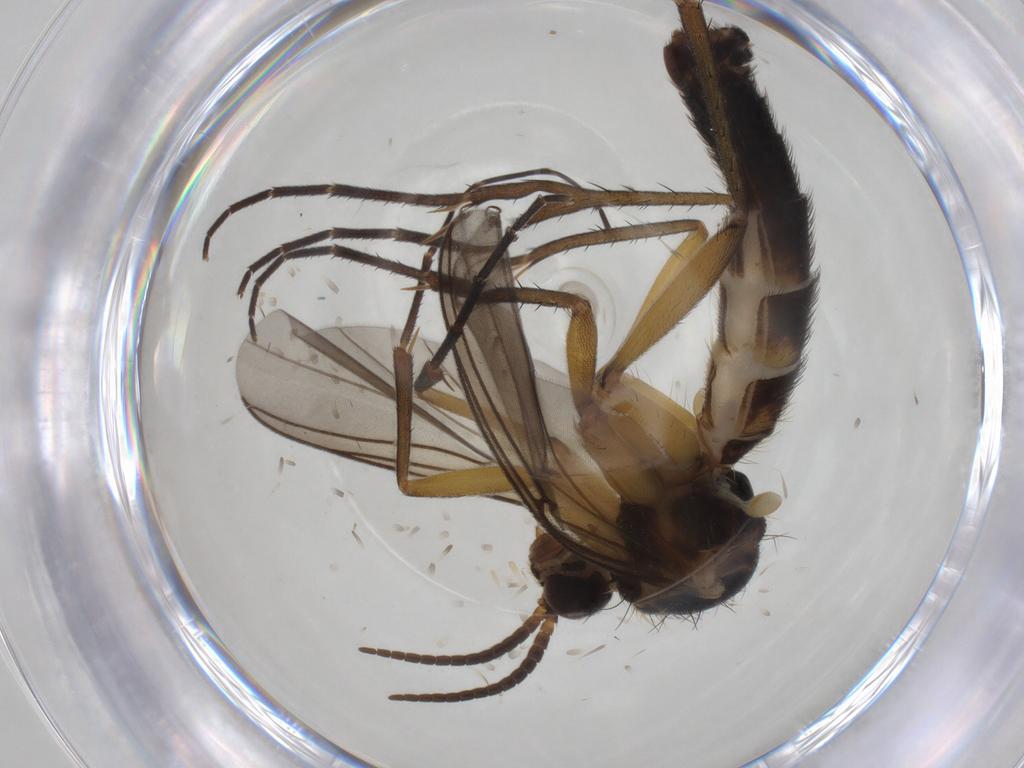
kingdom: Animalia
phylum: Arthropoda
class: Insecta
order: Diptera
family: Mycetophilidae
